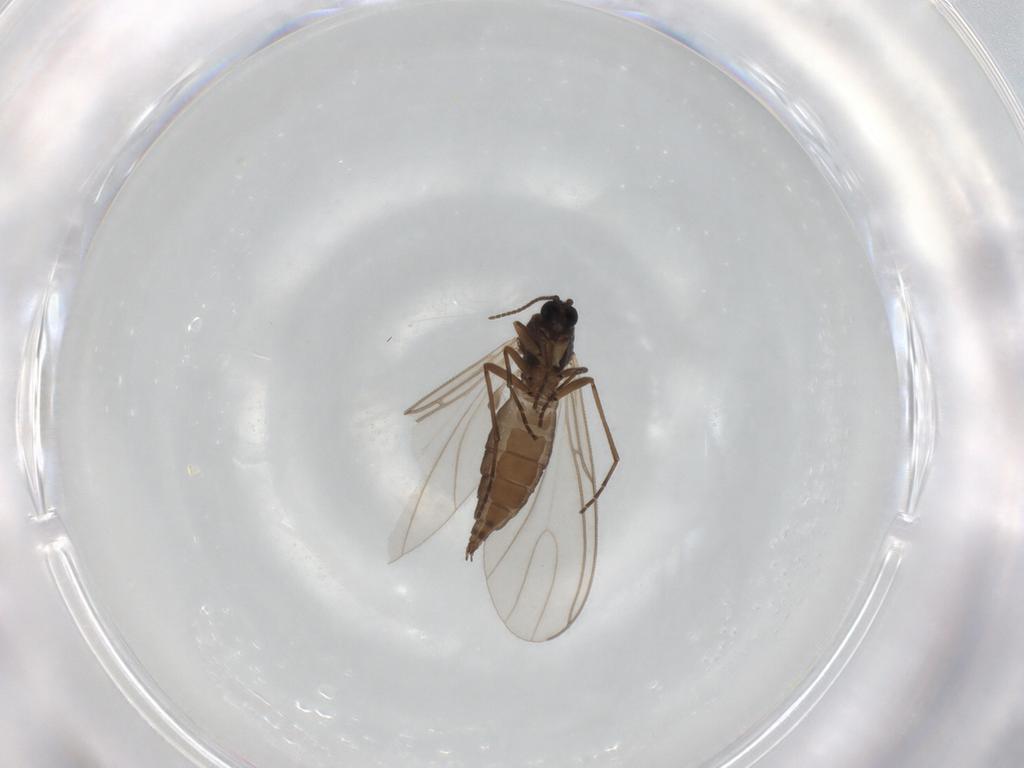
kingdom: Animalia
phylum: Arthropoda
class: Insecta
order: Diptera
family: Sciaridae
